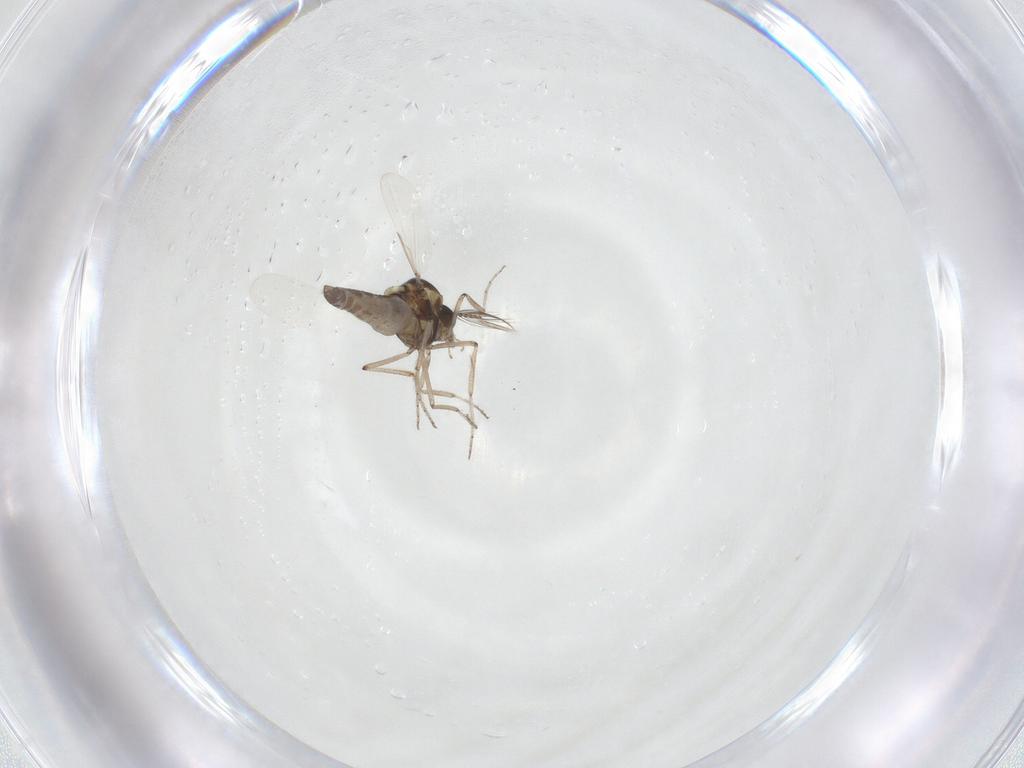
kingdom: Animalia
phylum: Arthropoda
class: Insecta
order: Diptera
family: Ceratopogonidae
